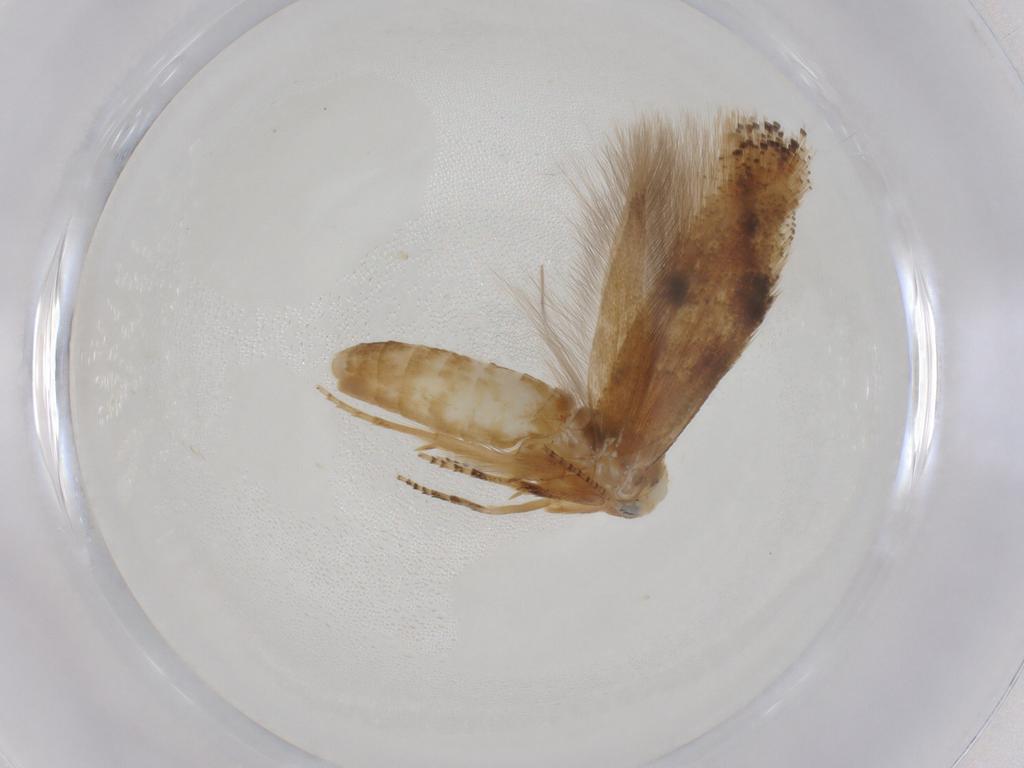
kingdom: Animalia
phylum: Arthropoda
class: Insecta
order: Lepidoptera
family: Bucculatricidae
